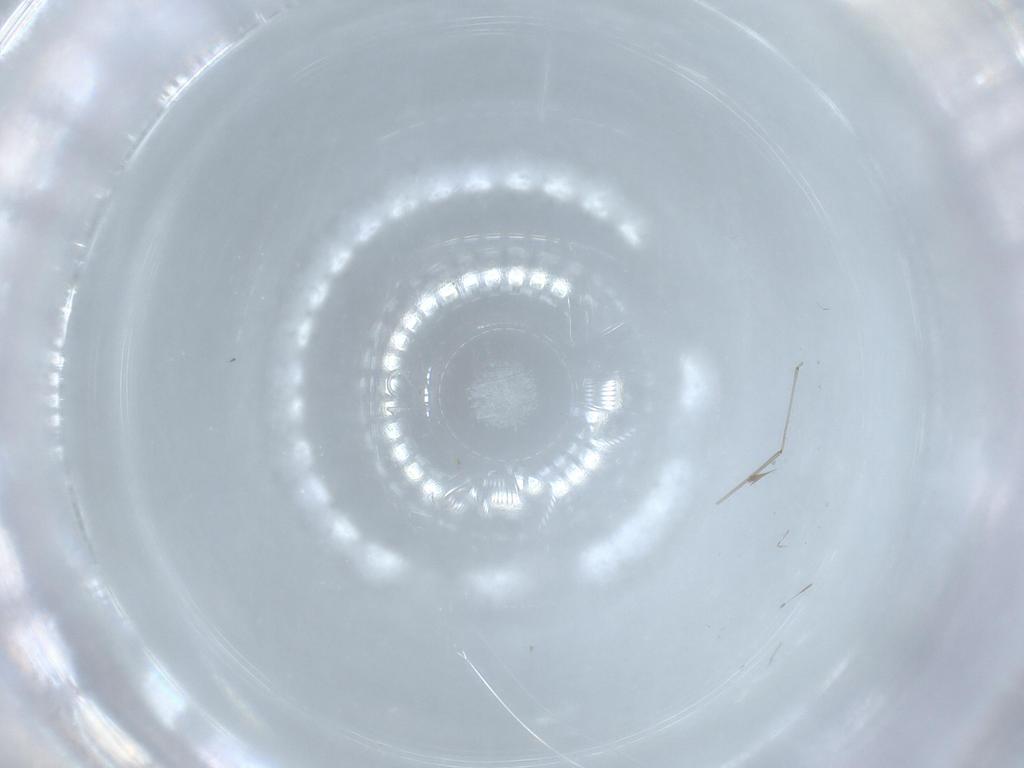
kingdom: Animalia
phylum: Arthropoda
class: Insecta
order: Diptera
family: Cecidomyiidae
